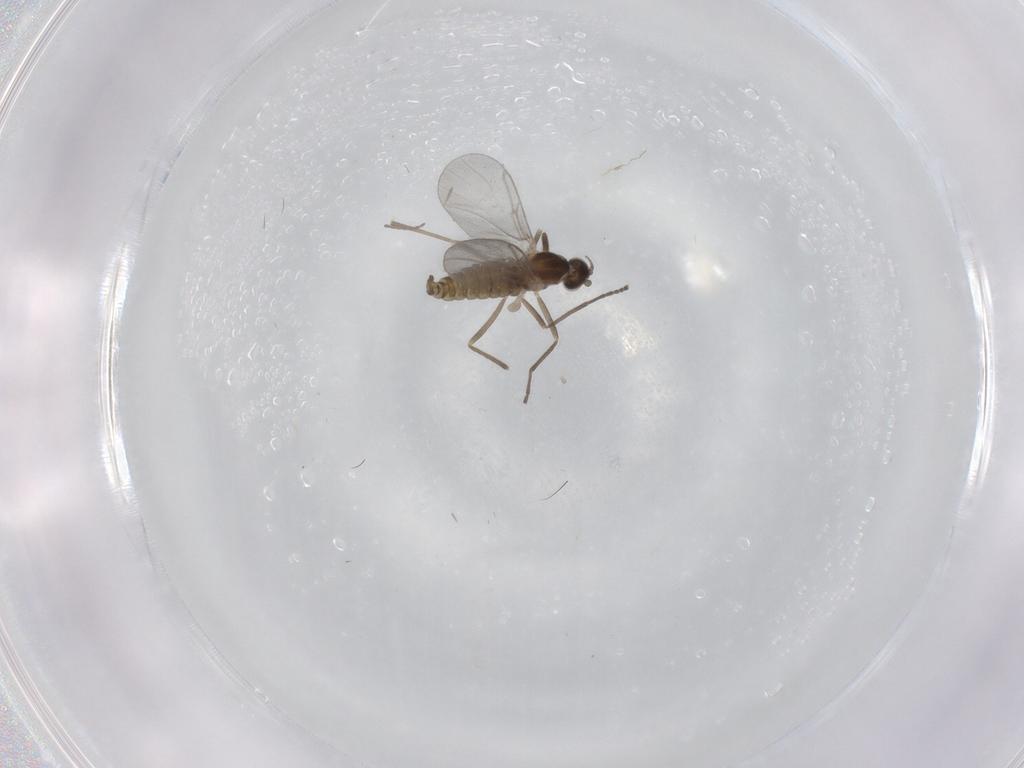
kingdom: Animalia
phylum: Arthropoda
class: Insecta
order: Diptera
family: Cecidomyiidae
